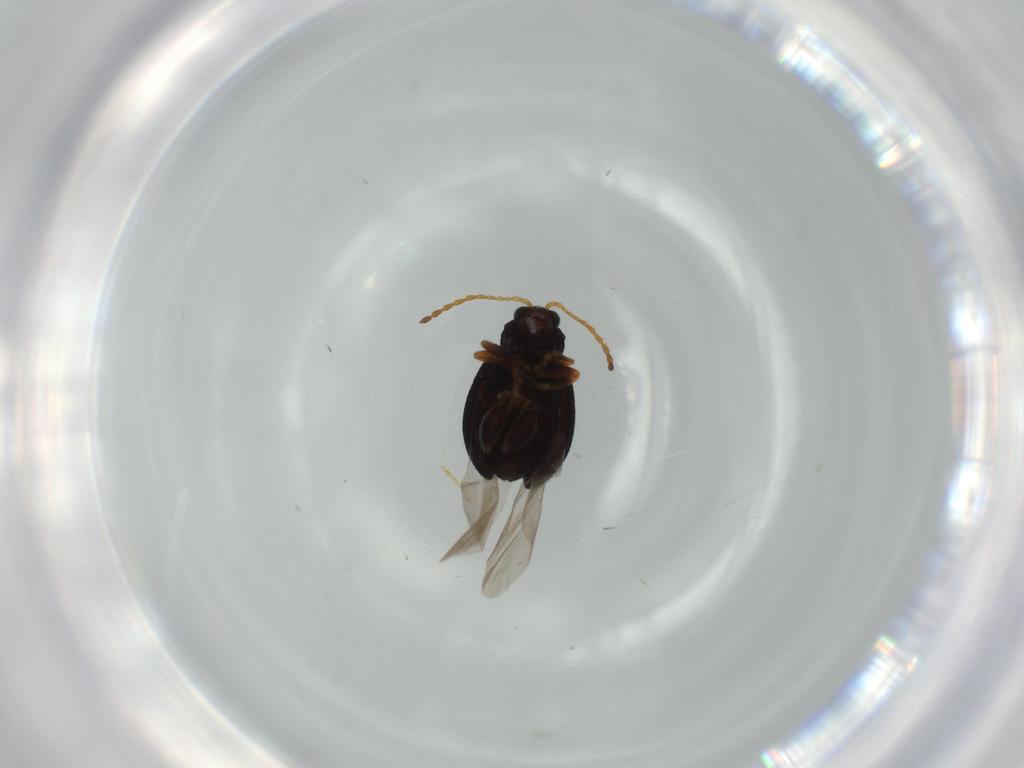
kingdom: Animalia
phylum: Arthropoda
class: Insecta
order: Coleoptera
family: Chrysomelidae
